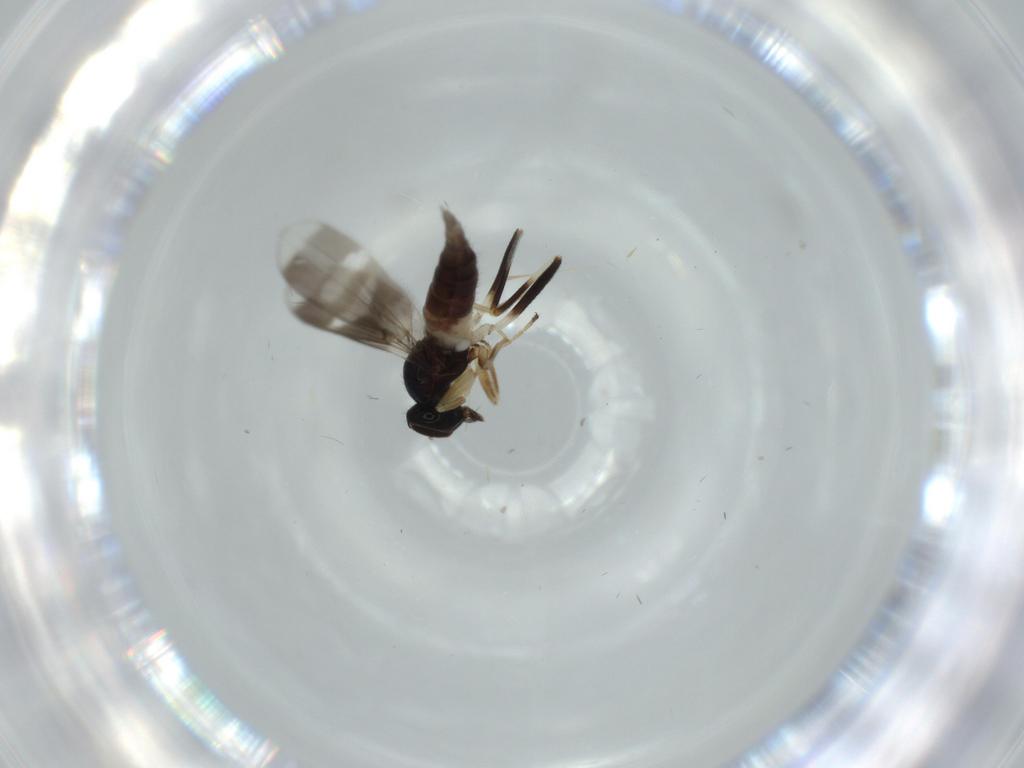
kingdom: Animalia
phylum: Arthropoda
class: Insecta
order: Diptera
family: Hybotidae
